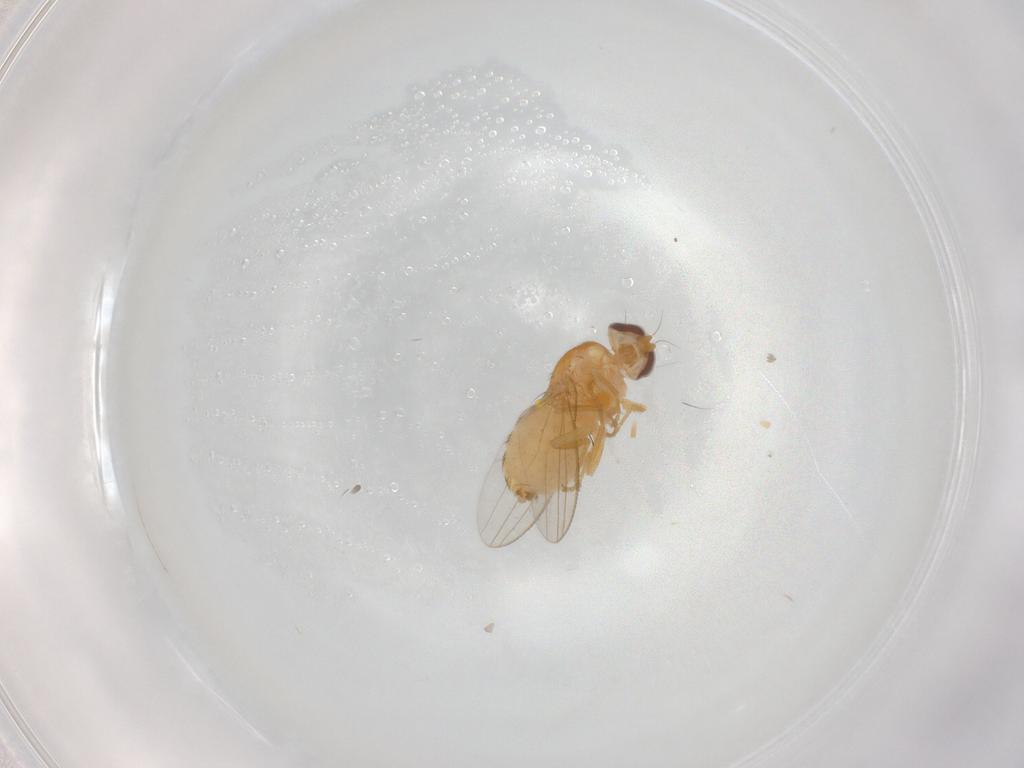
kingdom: Animalia
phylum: Arthropoda
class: Insecta
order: Diptera
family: Chyromyidae
